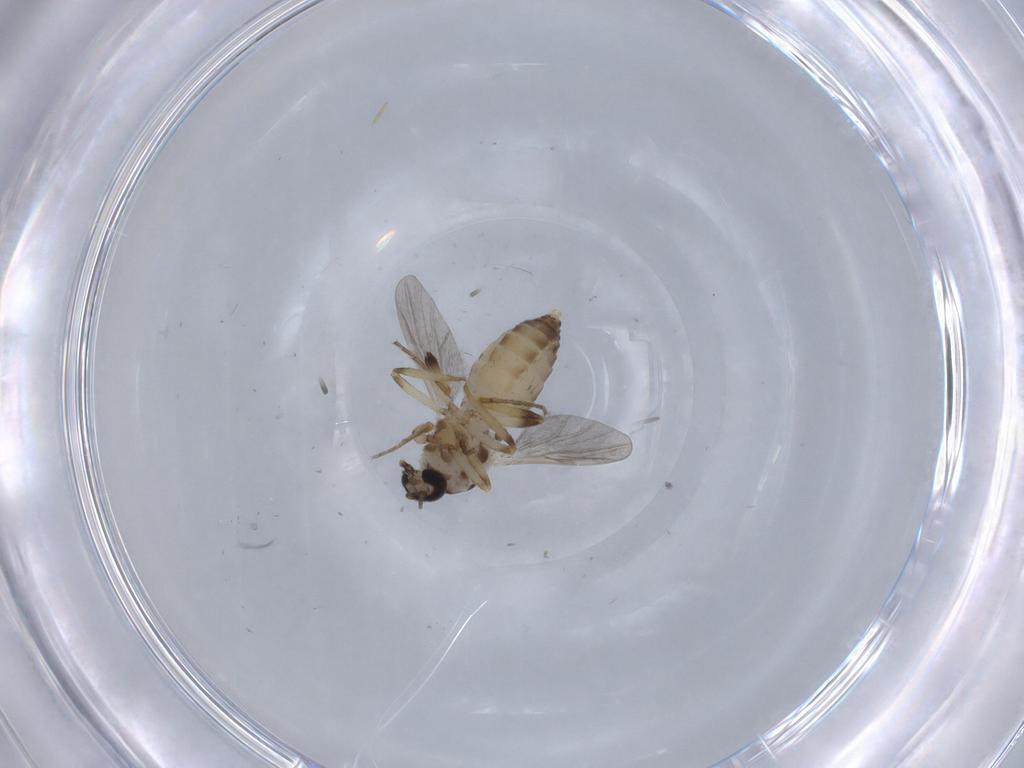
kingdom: Animalia
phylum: Arthropoda
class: Insecta
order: Diptera
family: Ceratopogonidae
